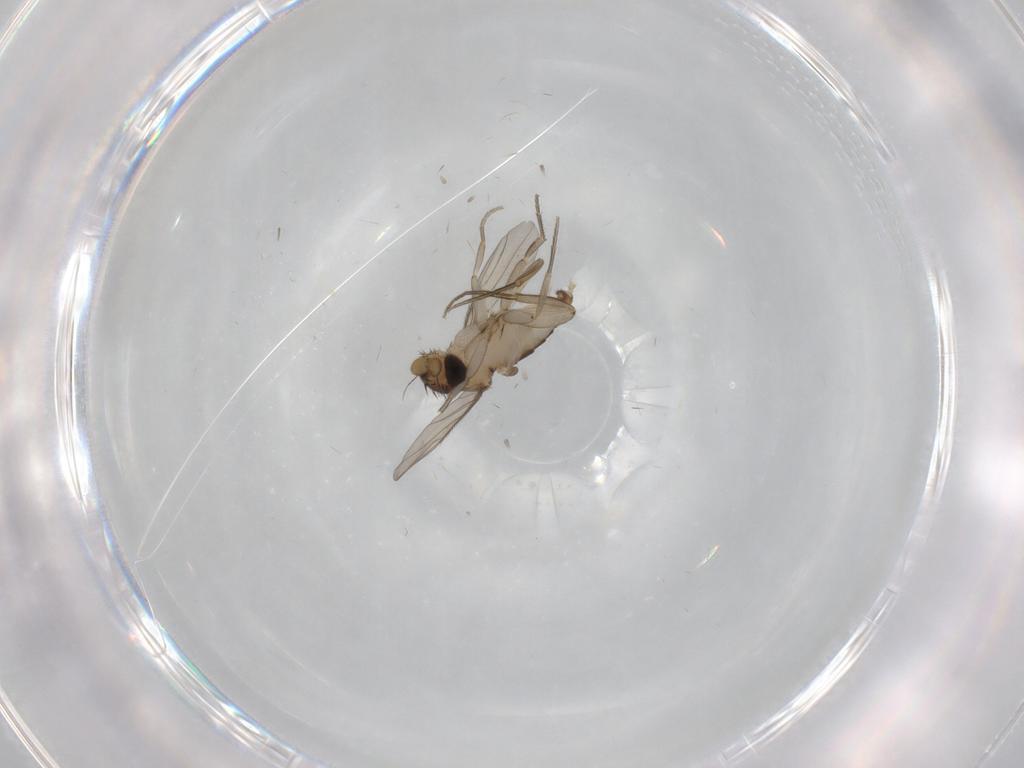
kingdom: Animalia
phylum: Arthropoda
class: Insecta
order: Diptera
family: Phoridae
